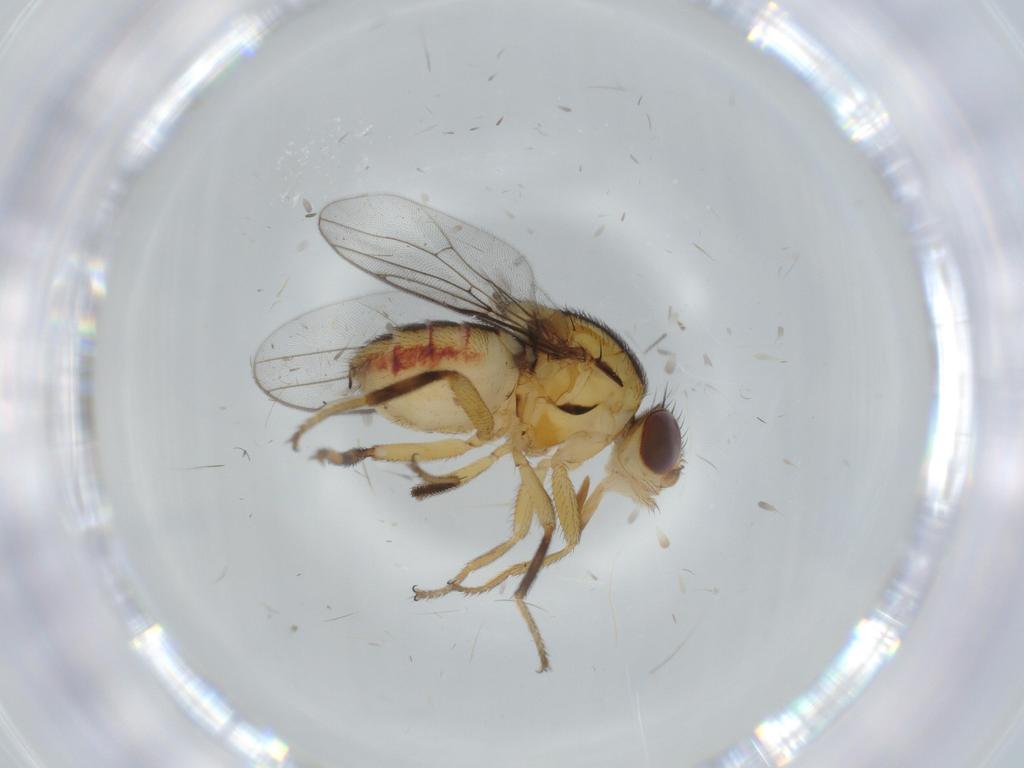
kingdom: Animalia
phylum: Arthropoda
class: Insecta
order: Diptera
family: Chloropidae
